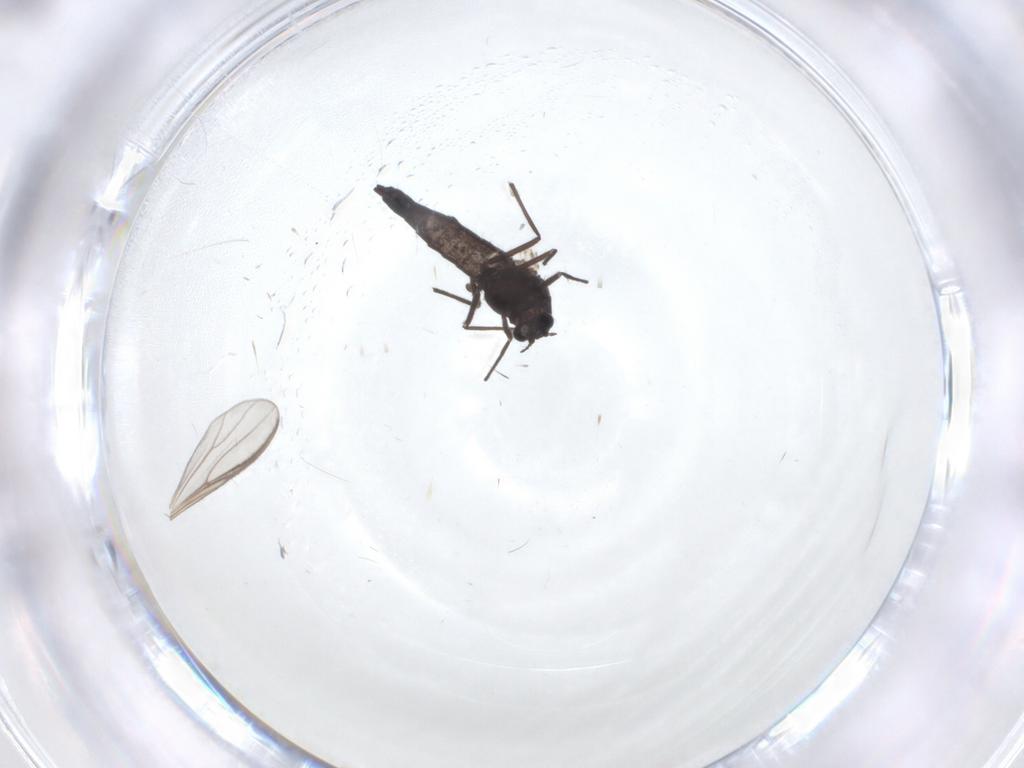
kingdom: Animalia
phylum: Arthropoda
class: Insecta
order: Diptera
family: Chironomidae
